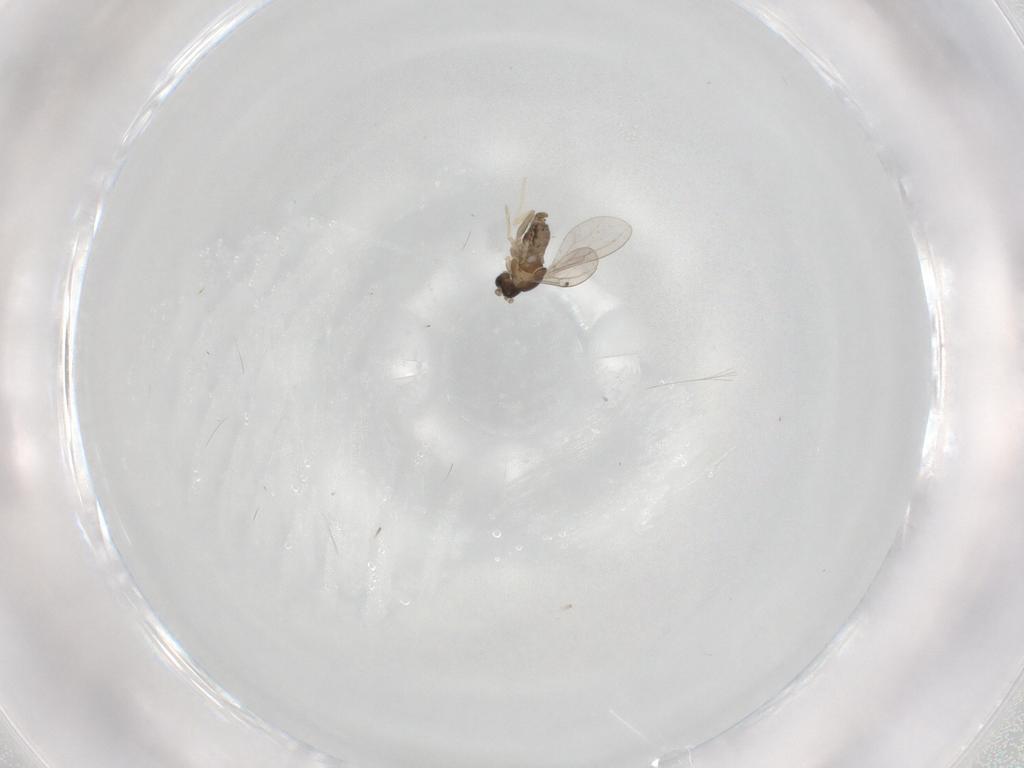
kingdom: Animalia
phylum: Arthropoda
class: Insecta
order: Diptera
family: Muscidae
